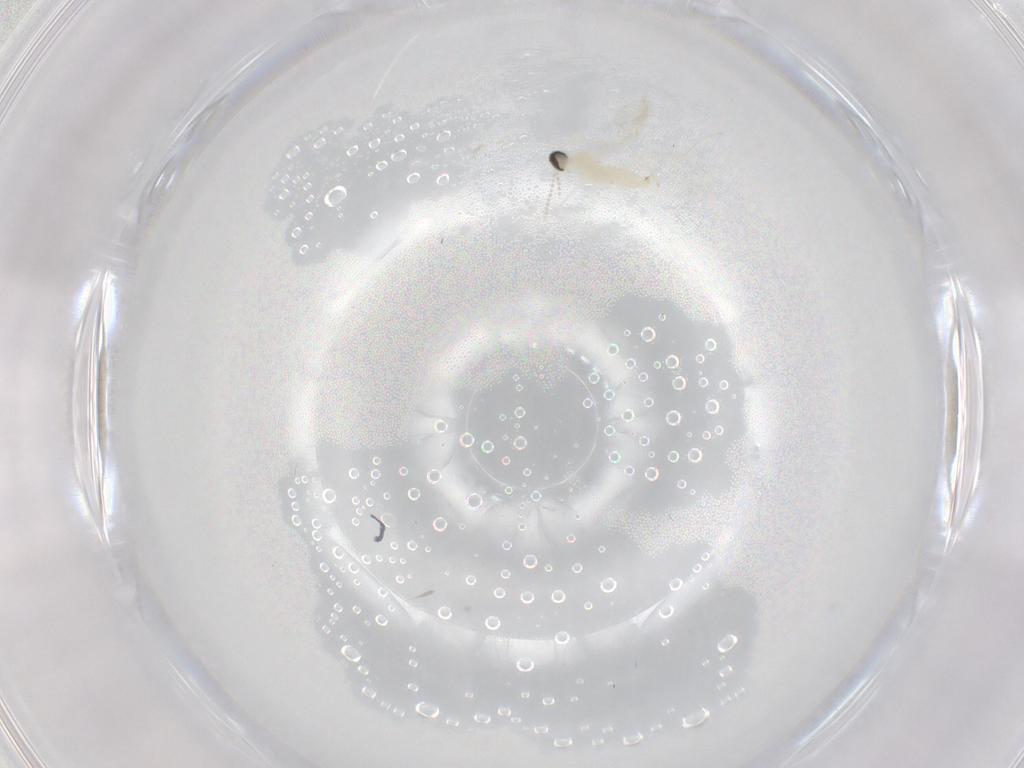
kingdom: Animalia
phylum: Arthropoda
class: Insecta
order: Diptera
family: Cecidomyiidae
